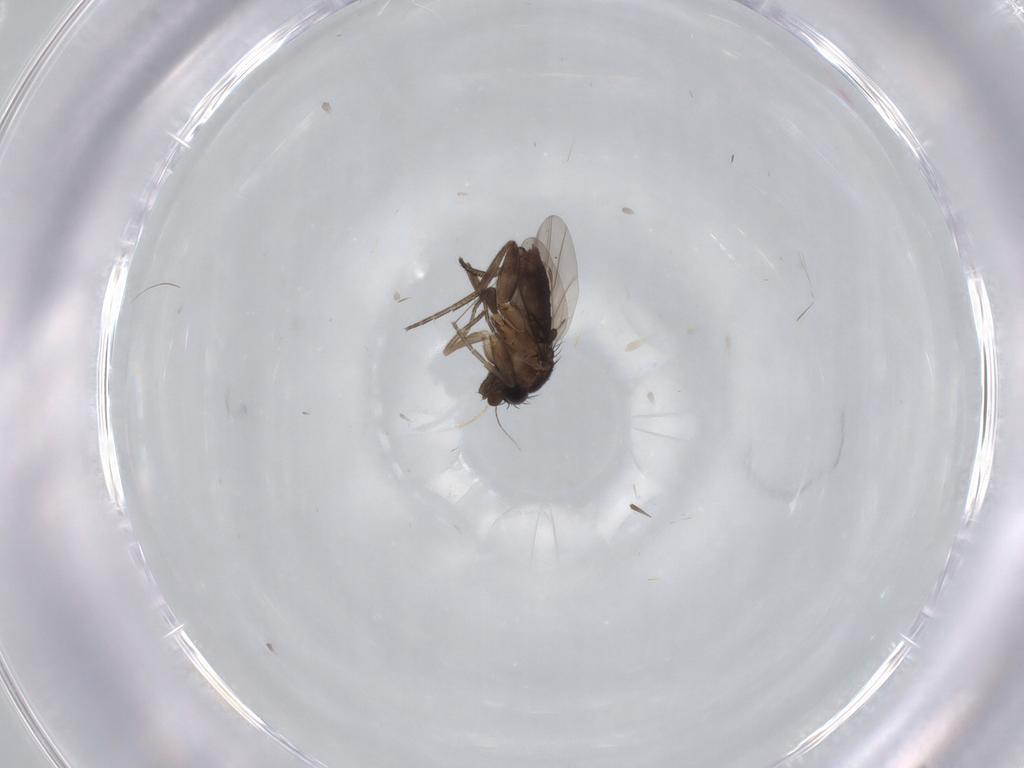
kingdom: Animalia
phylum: Arthropoda
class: Insecta
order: Diptera
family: Phoridae
